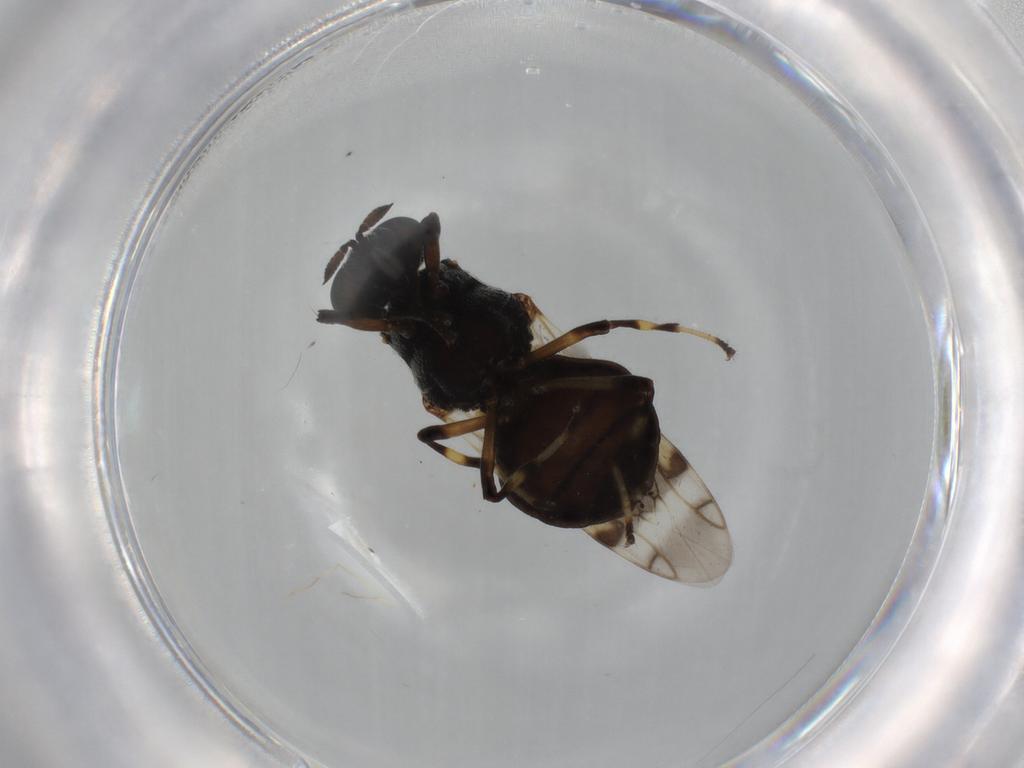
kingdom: Animalia
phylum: Arthropoda
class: Insecta
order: Diptera
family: Stratiomyidae
